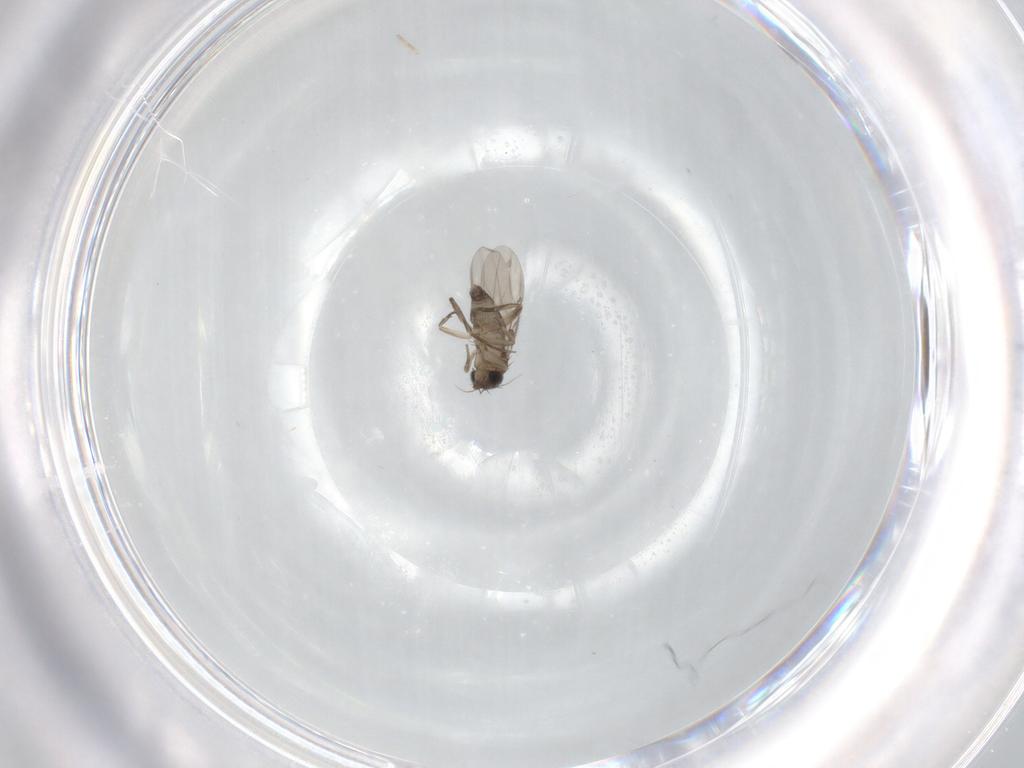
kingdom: Animalia
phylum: Arthropoda
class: Insecta
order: Diptera
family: Phoridae
